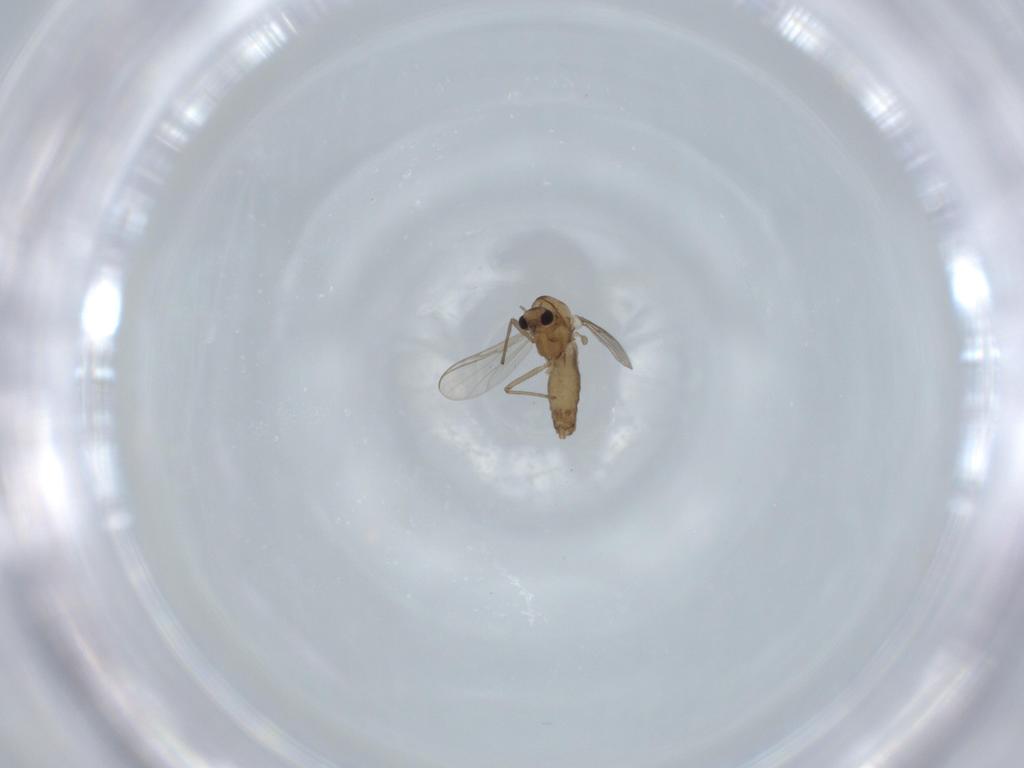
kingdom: Animalia
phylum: Arthropoda
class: Insecta
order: Diptera
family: Chironomidae
